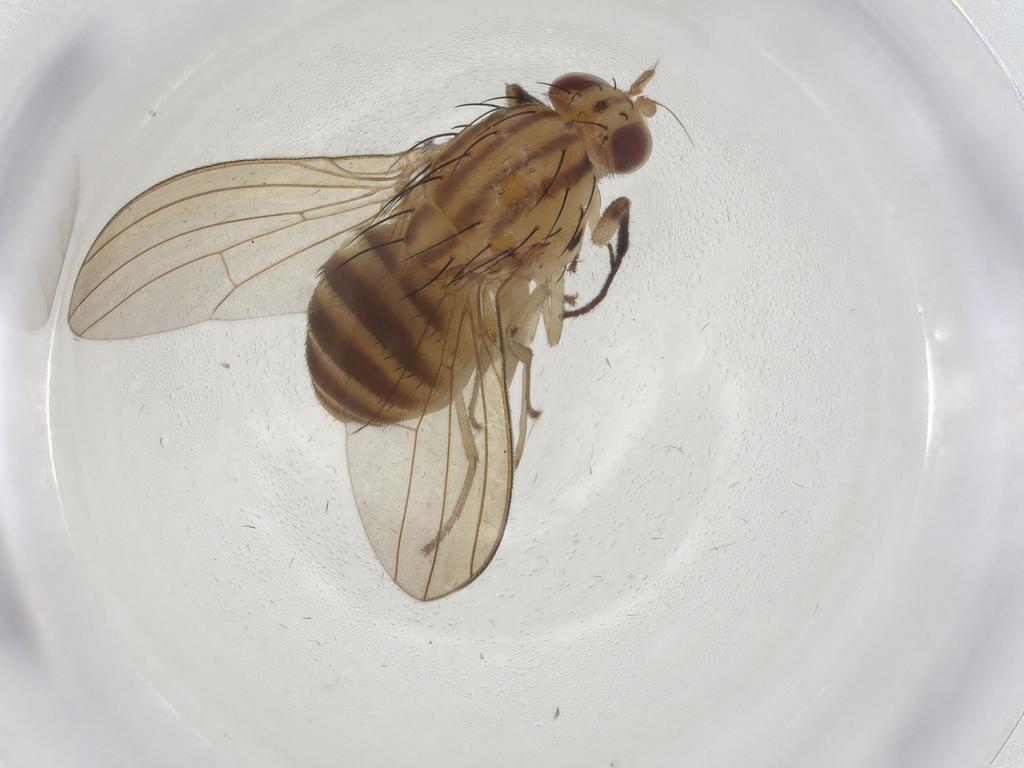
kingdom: Animalia
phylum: Arthropoda
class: Insecta
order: Diptera
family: Sciaridae
